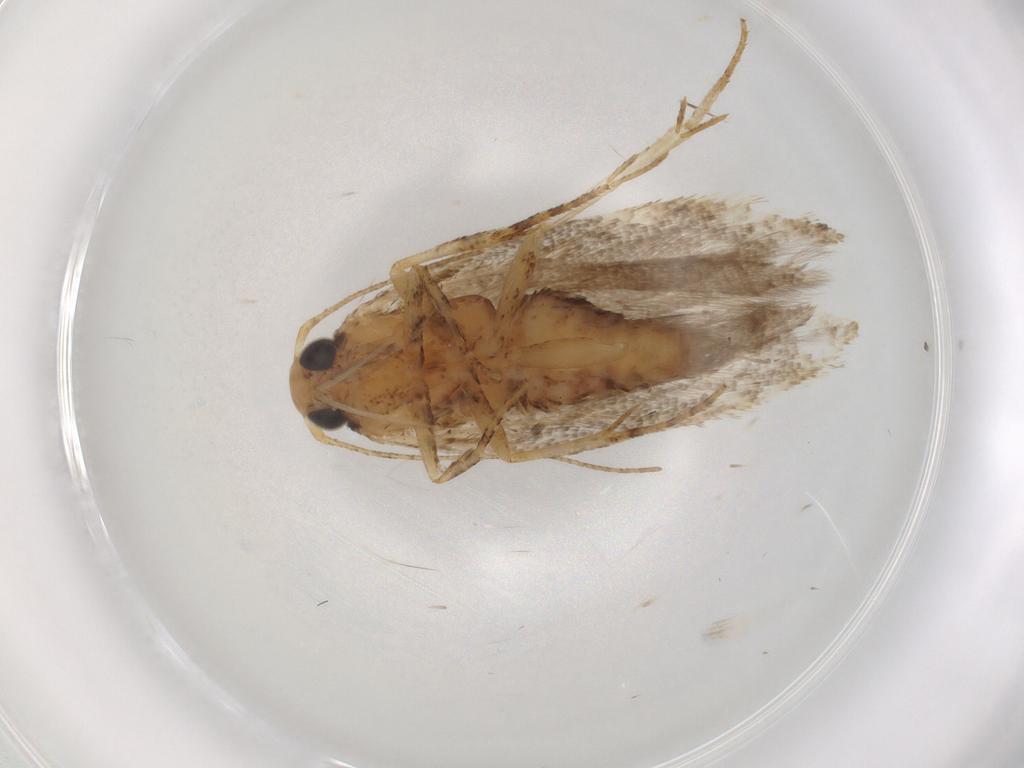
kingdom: Animalia
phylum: Arthropoda
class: Insecta
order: Lepidoptera
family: Gelechiidae
